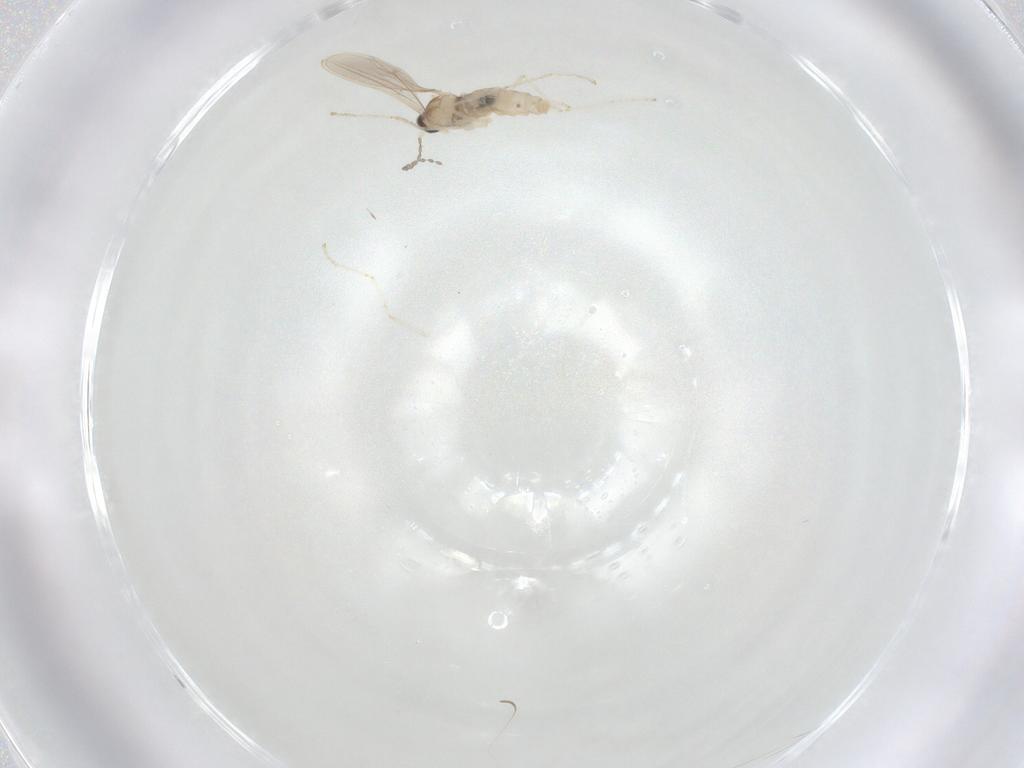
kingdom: Animalia
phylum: Arthropoda
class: Insecta
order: Diptera
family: Cecidomyiidae
